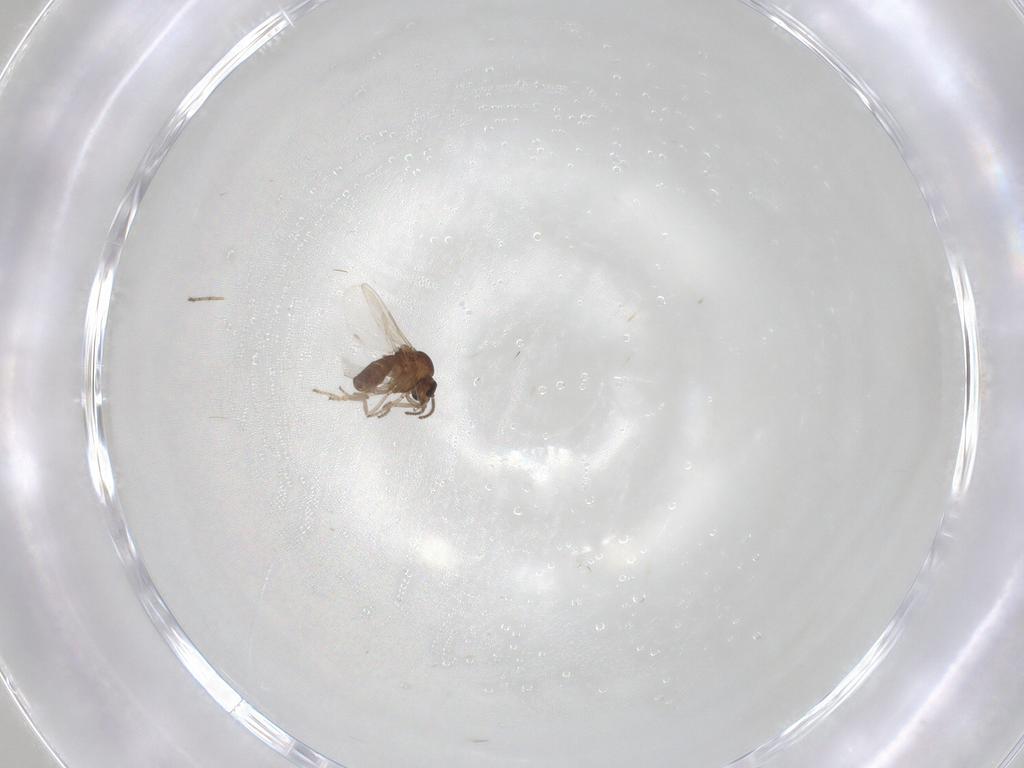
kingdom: Animalia
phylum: Arthropoda
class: Insecta
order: Diptera
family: Ceratopogonidae
